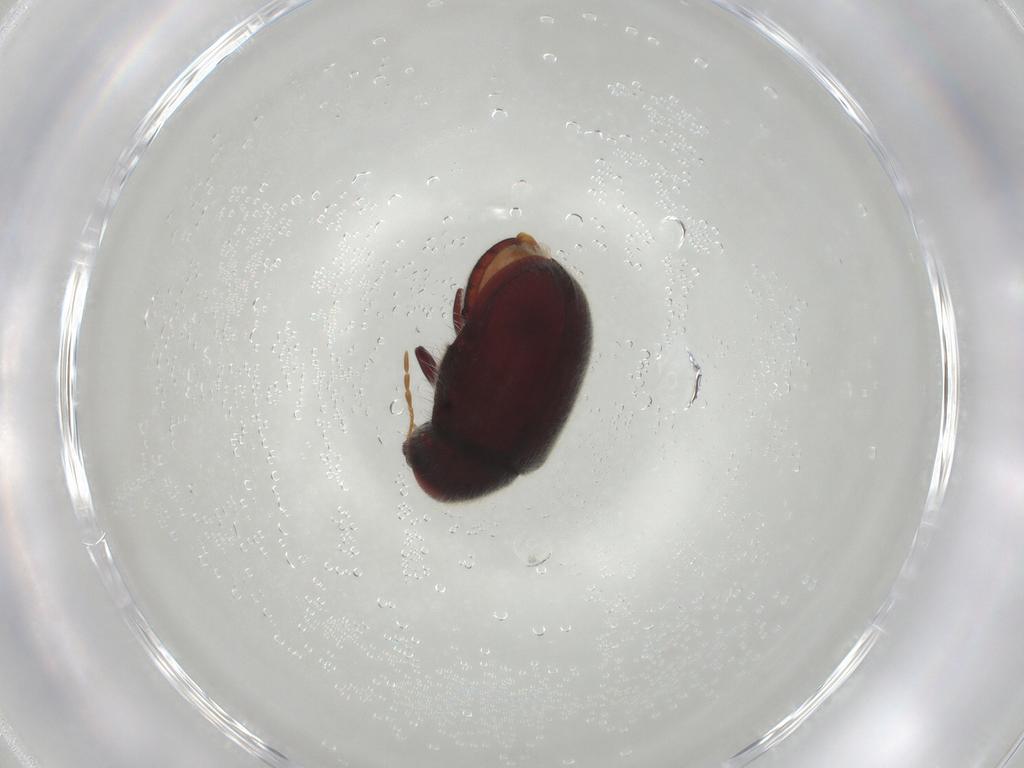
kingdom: Animalia
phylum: Arthropoda
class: Insecta
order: Coleoptera
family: Ptinidae
